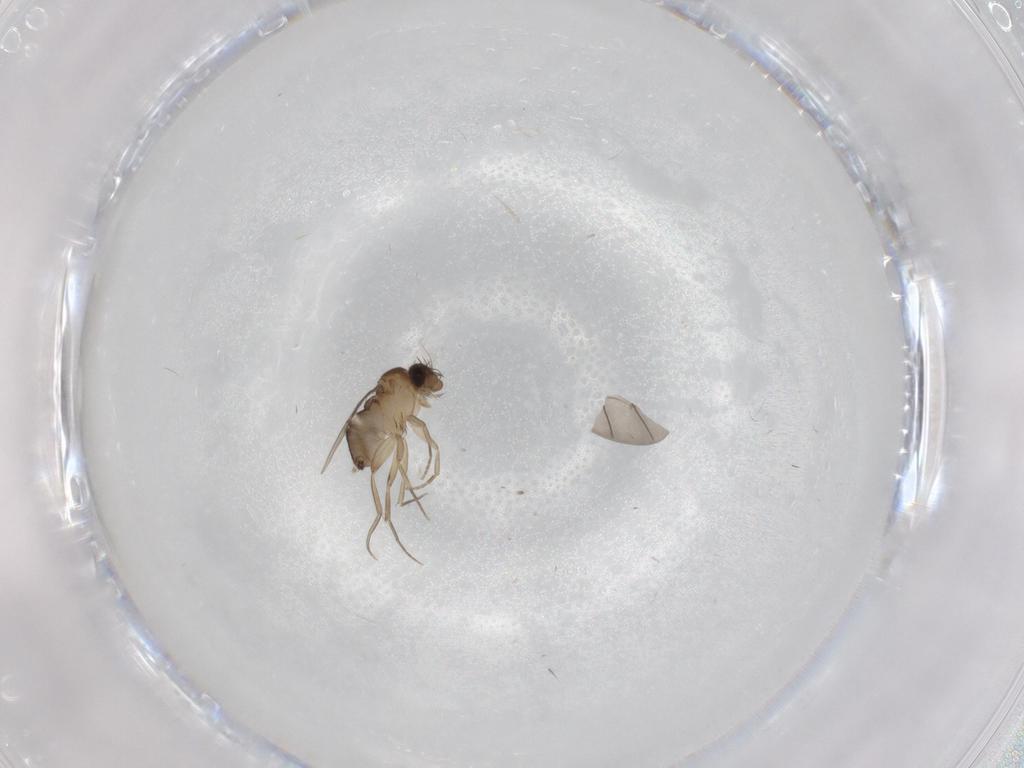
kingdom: Animalia
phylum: Arthropoda
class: Insecta
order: Diptera
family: Phoridae
